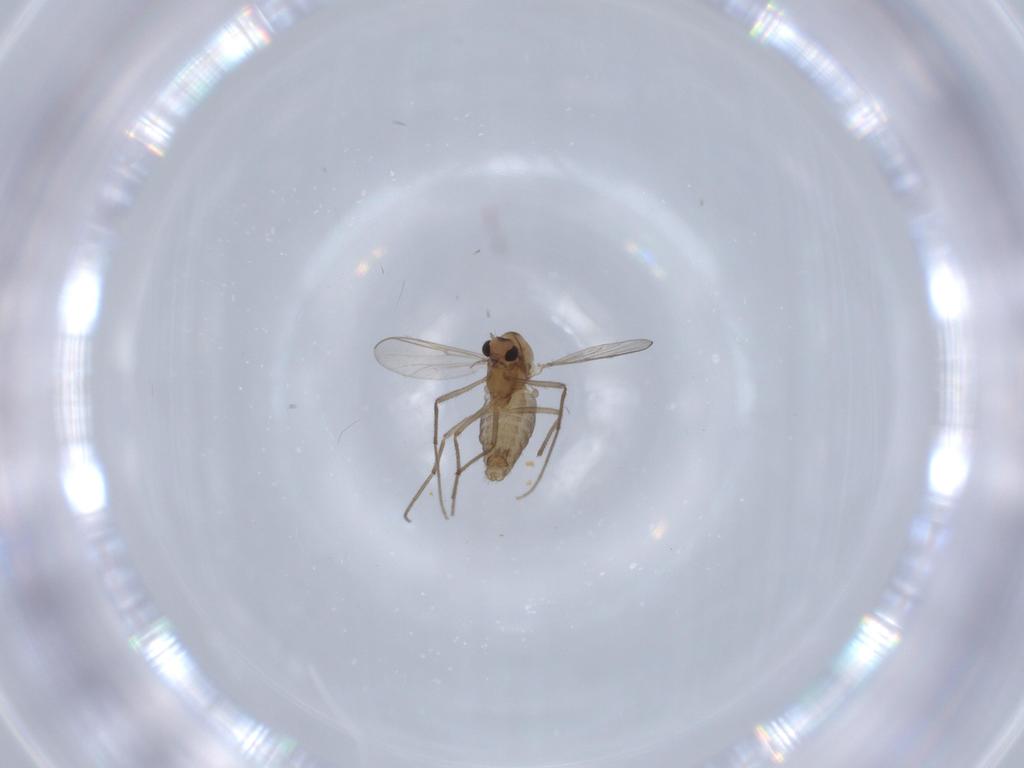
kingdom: Animalia
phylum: Arthropoda
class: Insecta
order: Diptera
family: Chironomidae
